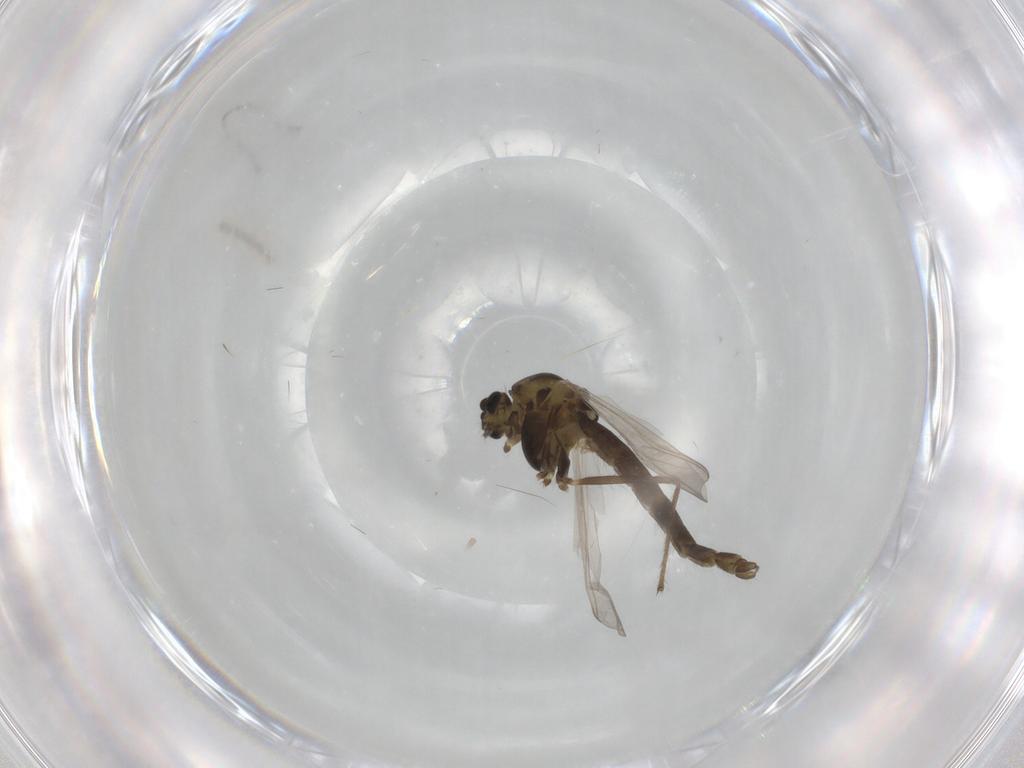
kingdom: Animalia
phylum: Arthropoda
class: Insecta
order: Diptera
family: Chironomidae
